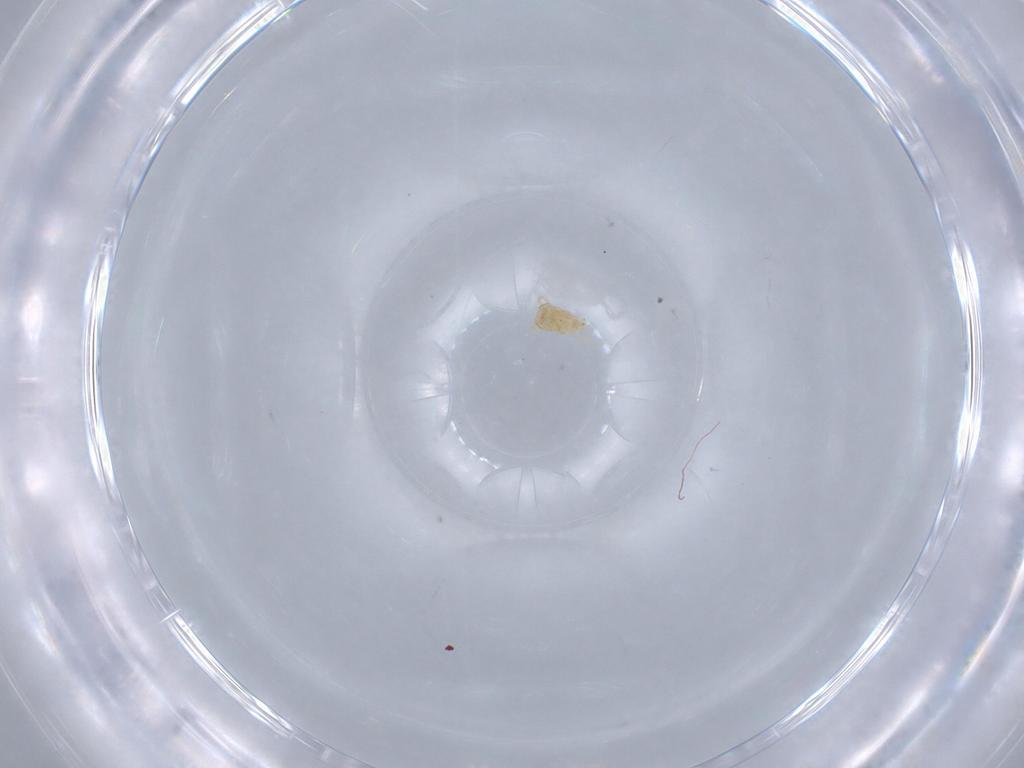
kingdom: Animalia
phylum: Arthropoda
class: Arachnida
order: Mesostigmata
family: Blattisociidae
